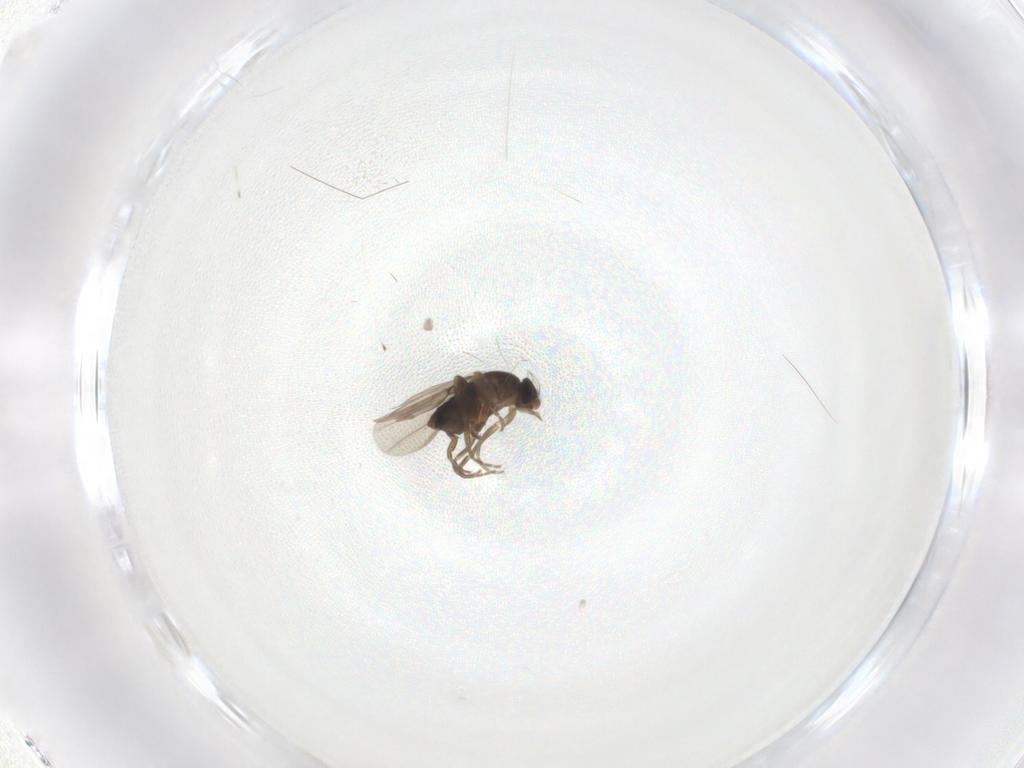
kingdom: Animalia
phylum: Arthropoda
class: Insecta
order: Diptera
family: Phoridae
